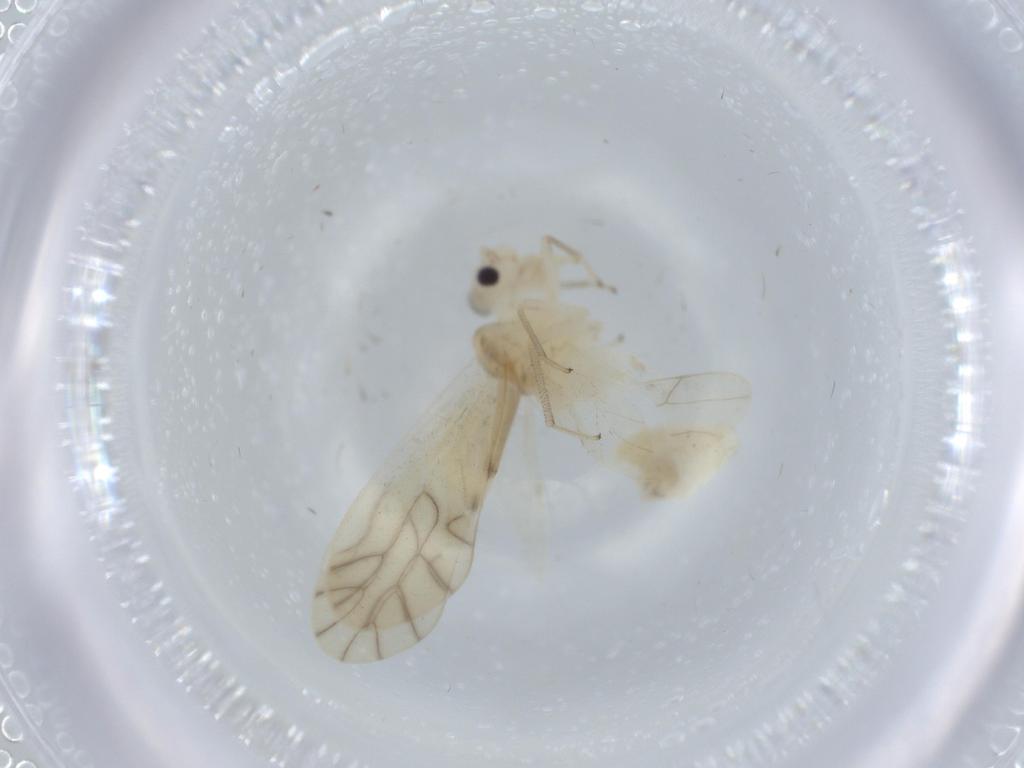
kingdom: Animalia
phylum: Arthropoda
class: Insecta
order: Psocodea
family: Caeciliusidae
